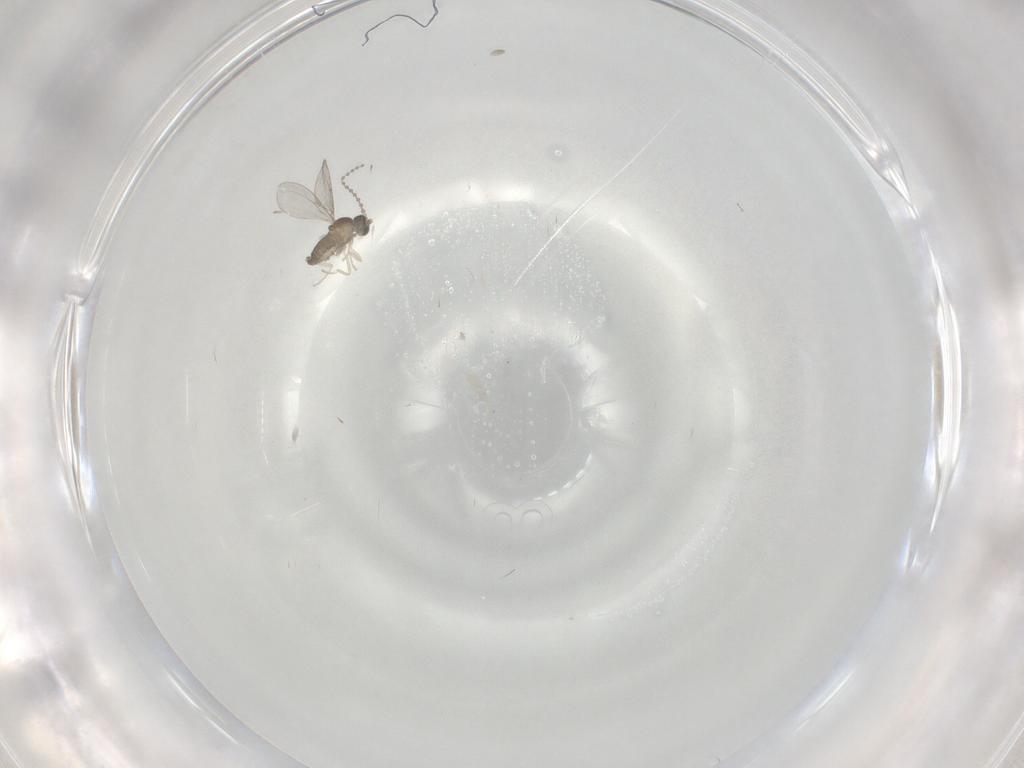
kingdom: Animalia
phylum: Arthropoda
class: Insecta
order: Diptera
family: Cecidomyiidae
